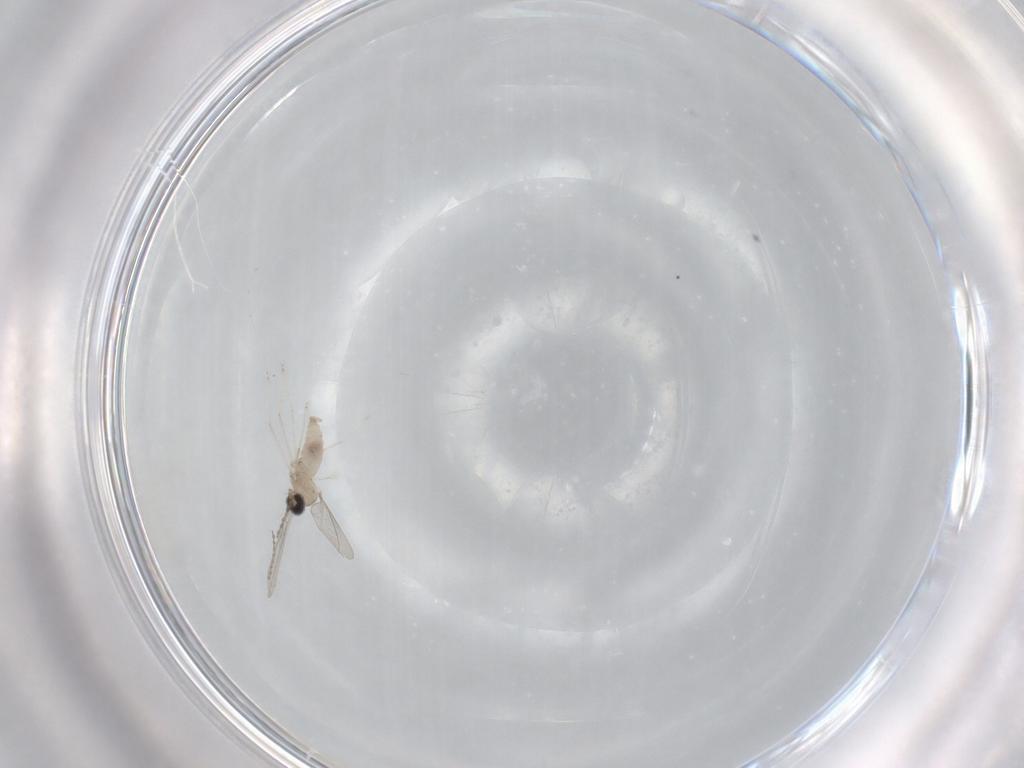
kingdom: Animalia
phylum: Arthropoda
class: Insecta
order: Diptera
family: Cecidomyiidae
